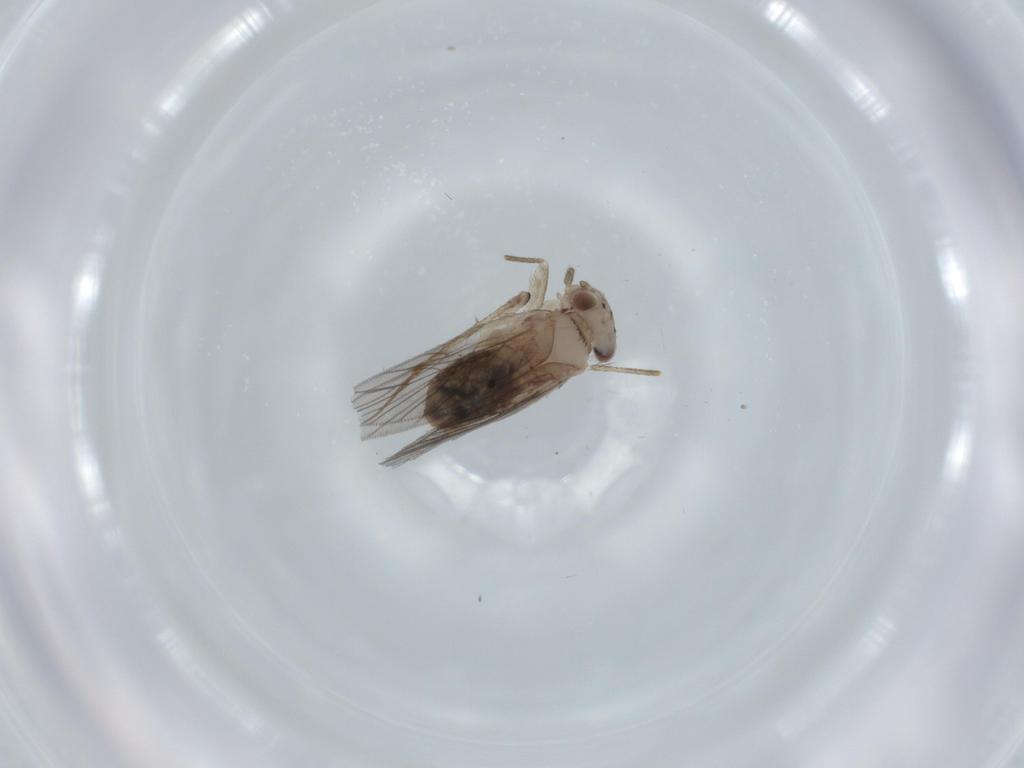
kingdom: Animalia
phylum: Arthropoda
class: Insecta
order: Psocodea
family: Lepidopsocidae
